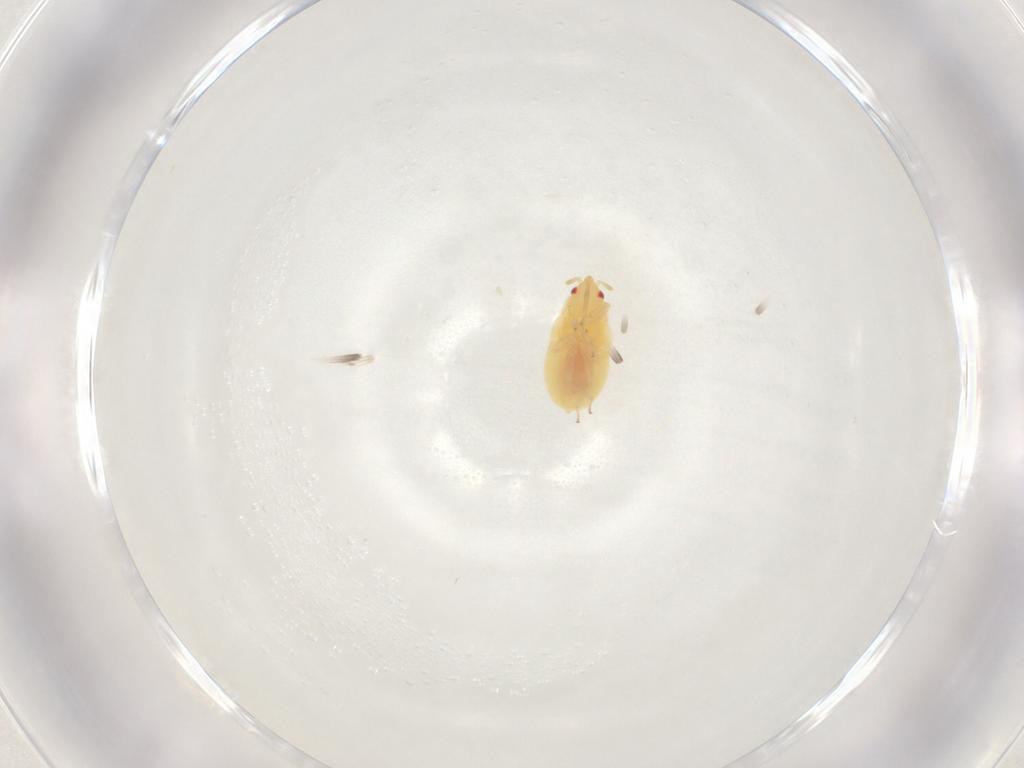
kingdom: Animalia
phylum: Arthropoda
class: Insecta
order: Hemiptera
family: Anthocoridae
